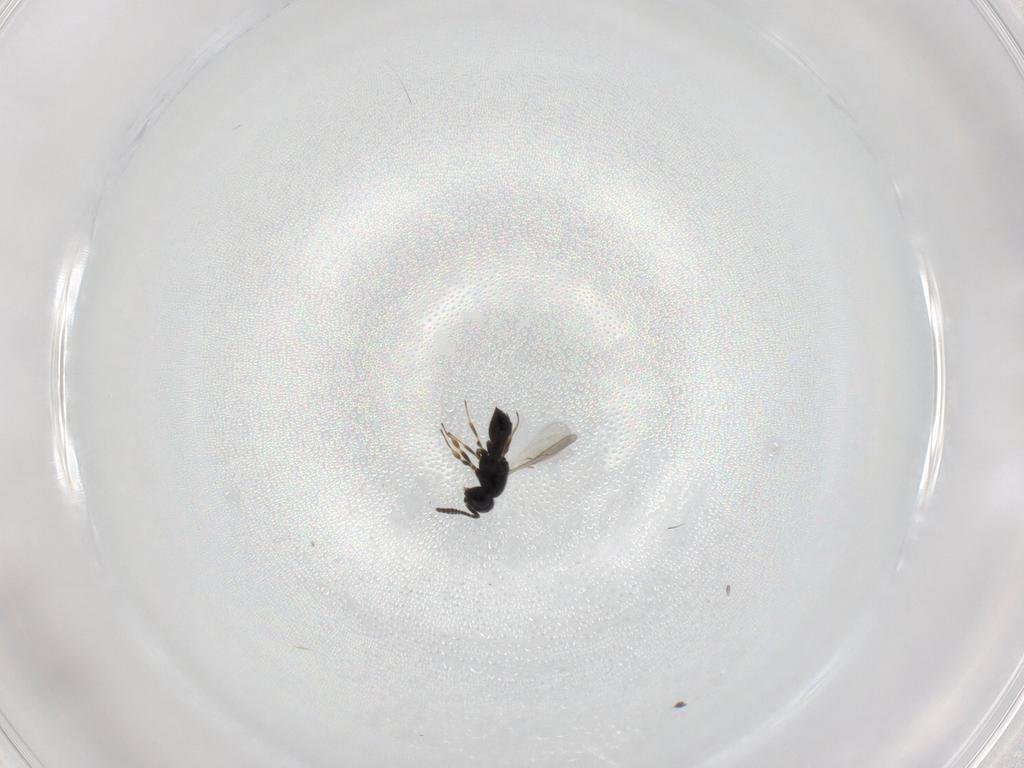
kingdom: Animalia
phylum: Arthropoda
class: Insecta
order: Hymenoptera
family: Scelionidae
